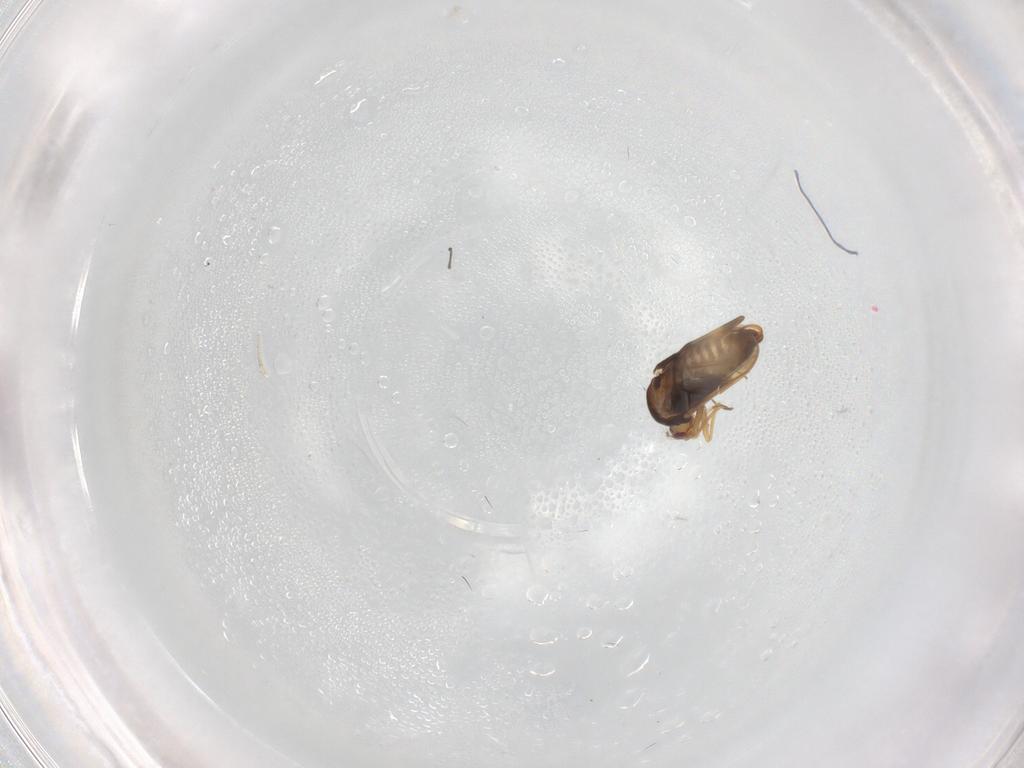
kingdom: Animalia
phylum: Arthropoda
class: Insecta
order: Hemiptera
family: Schizopteridae
